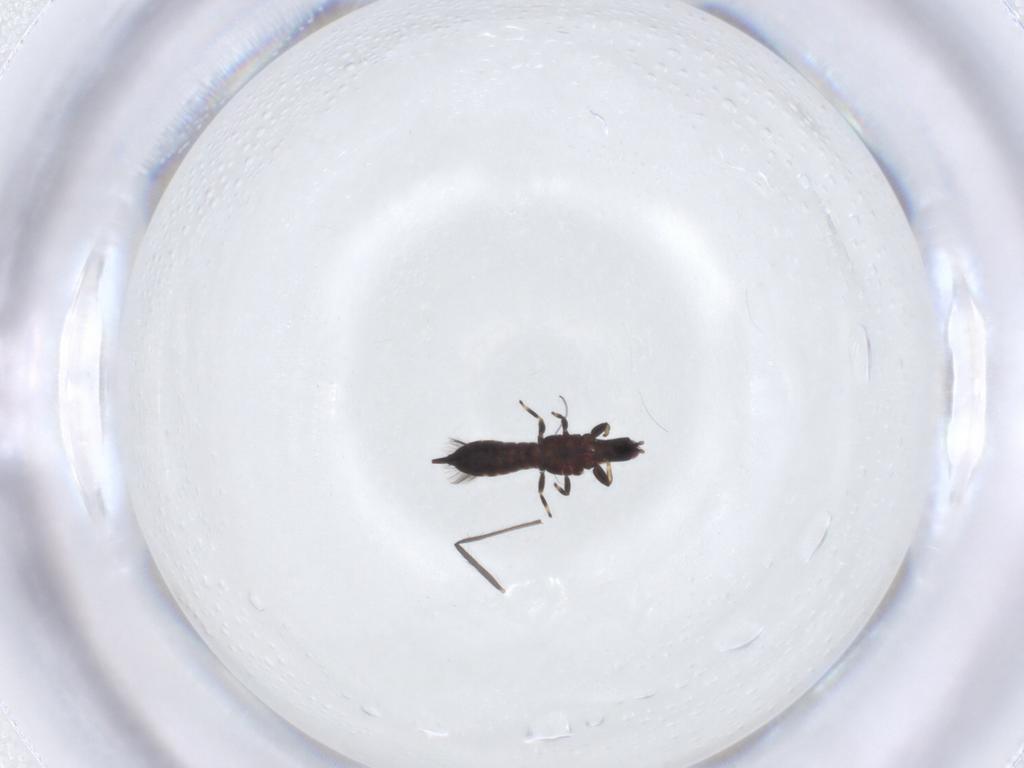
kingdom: Animalia
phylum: Arthropoda
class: Insecta
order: Thysanoptera
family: Phlaeothripidae
